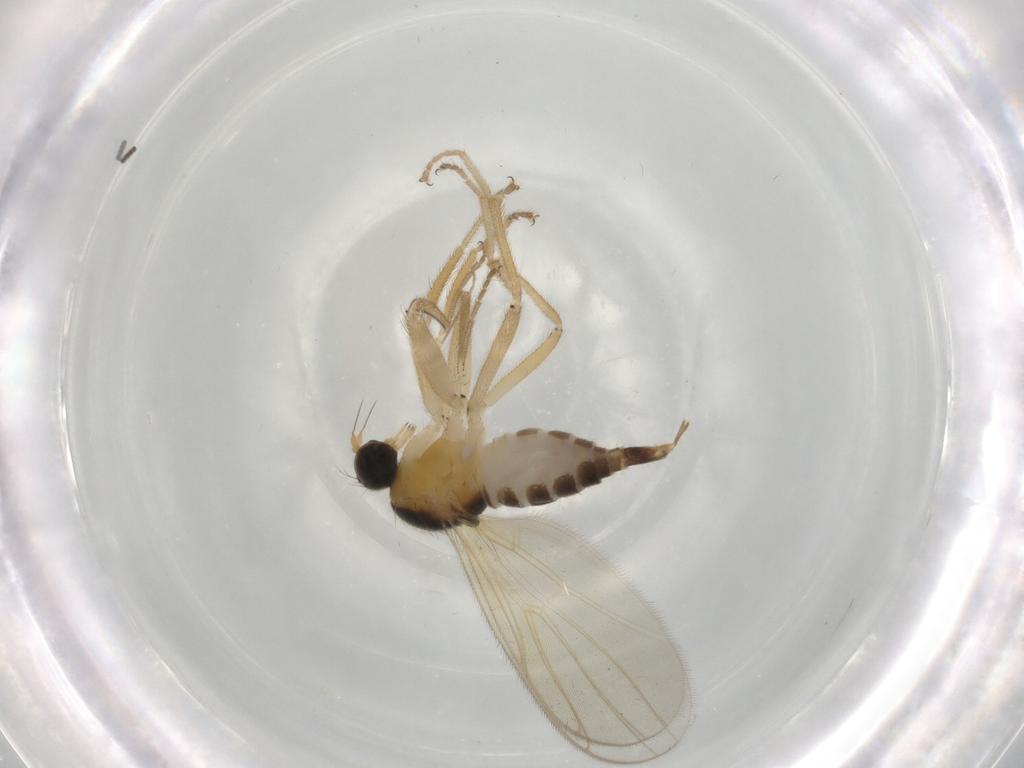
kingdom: Animalia
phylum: Arthropoda
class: Insecta
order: Diptera
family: Hybotidae
